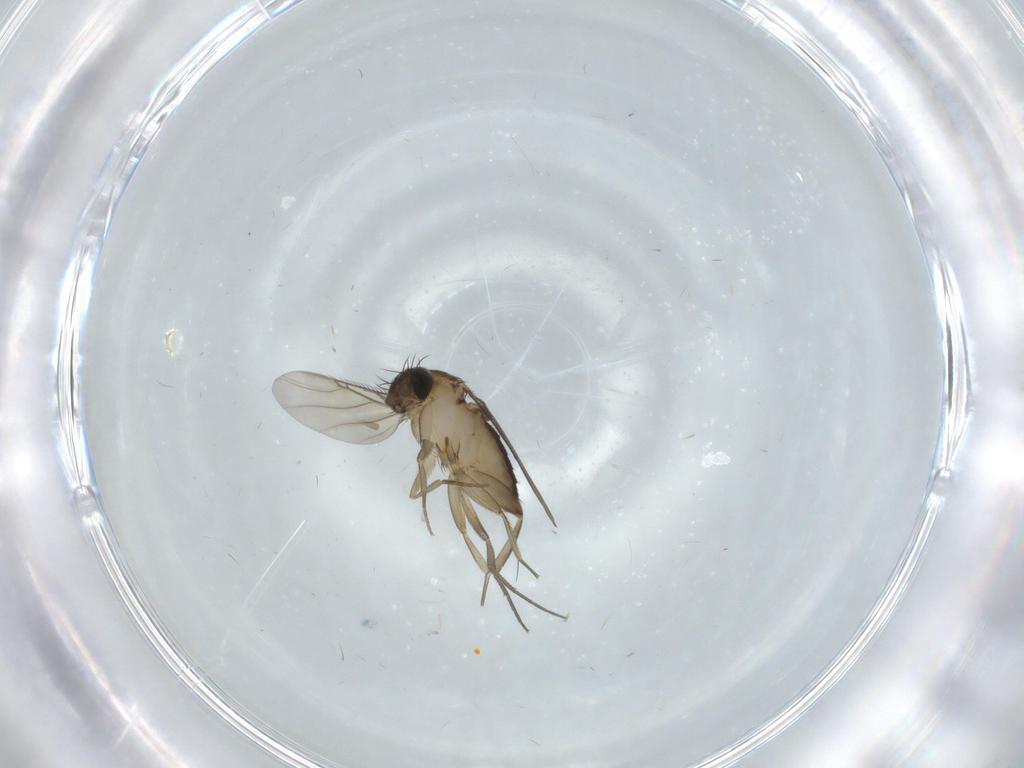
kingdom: Animalia
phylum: Arthropoda
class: Insecta
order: Diptera
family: Phoridae
